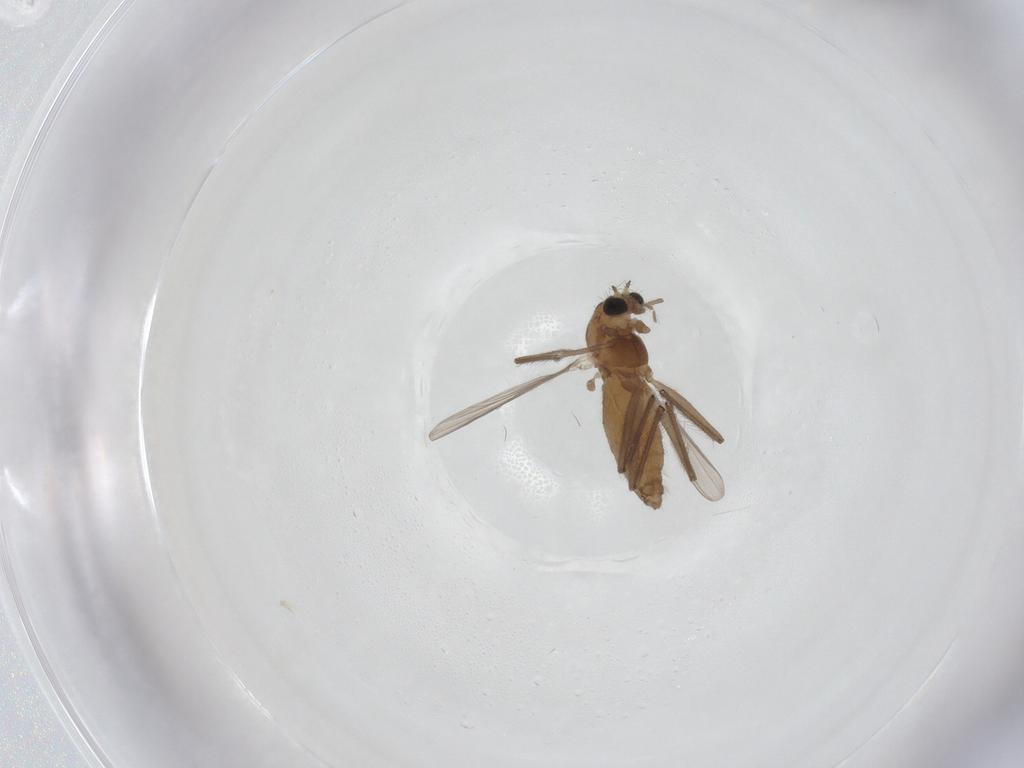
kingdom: Animalia
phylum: Arthropoda
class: Insecta
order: Diptera
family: Chironomidae
